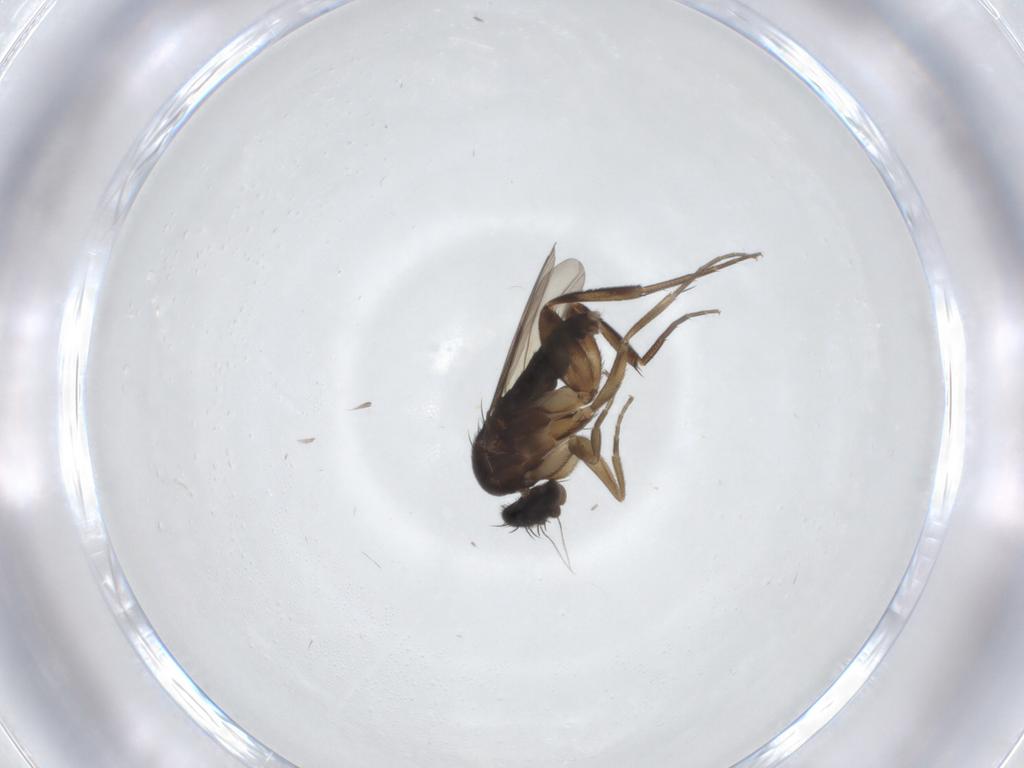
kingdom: Animalia
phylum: Arthropoda
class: Insecta
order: Diptera
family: Phoridae
